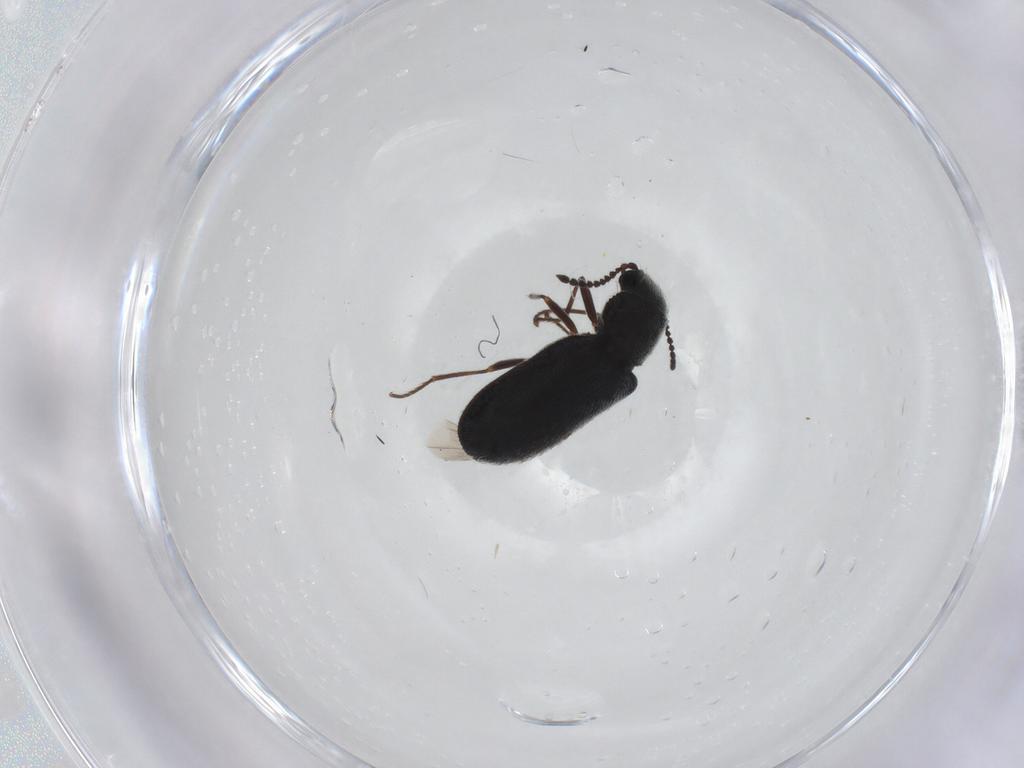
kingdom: Animalia
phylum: Arthropoda
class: Insecta
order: Coleoptera
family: Melyridae
